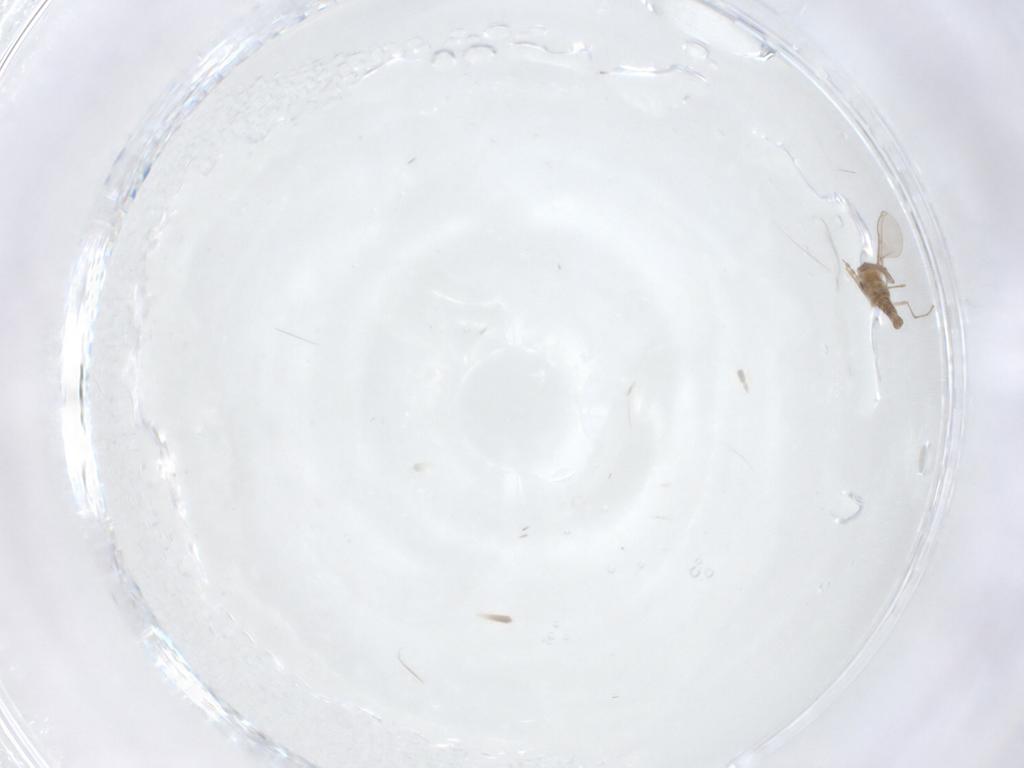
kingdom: Animalia
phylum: Arthropoda
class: Insecta
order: Diptera
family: Cecidomyiidae
